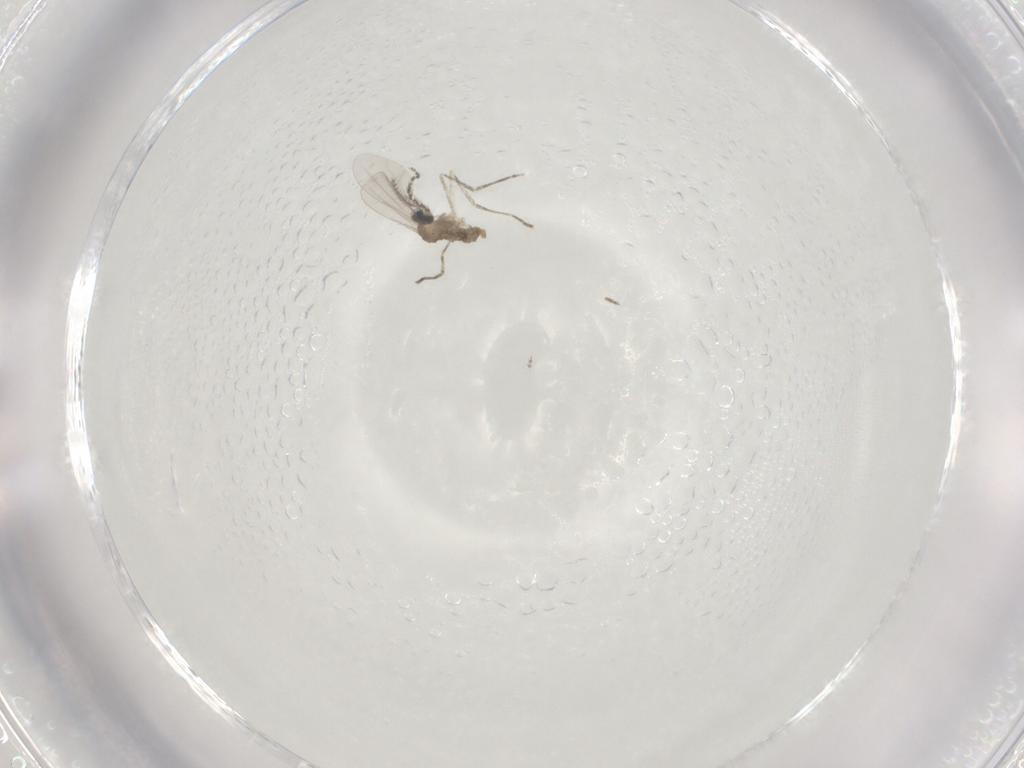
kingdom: Animalia
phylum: Arthropoda
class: Insecta
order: Diptera
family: Cecidomyiidae
